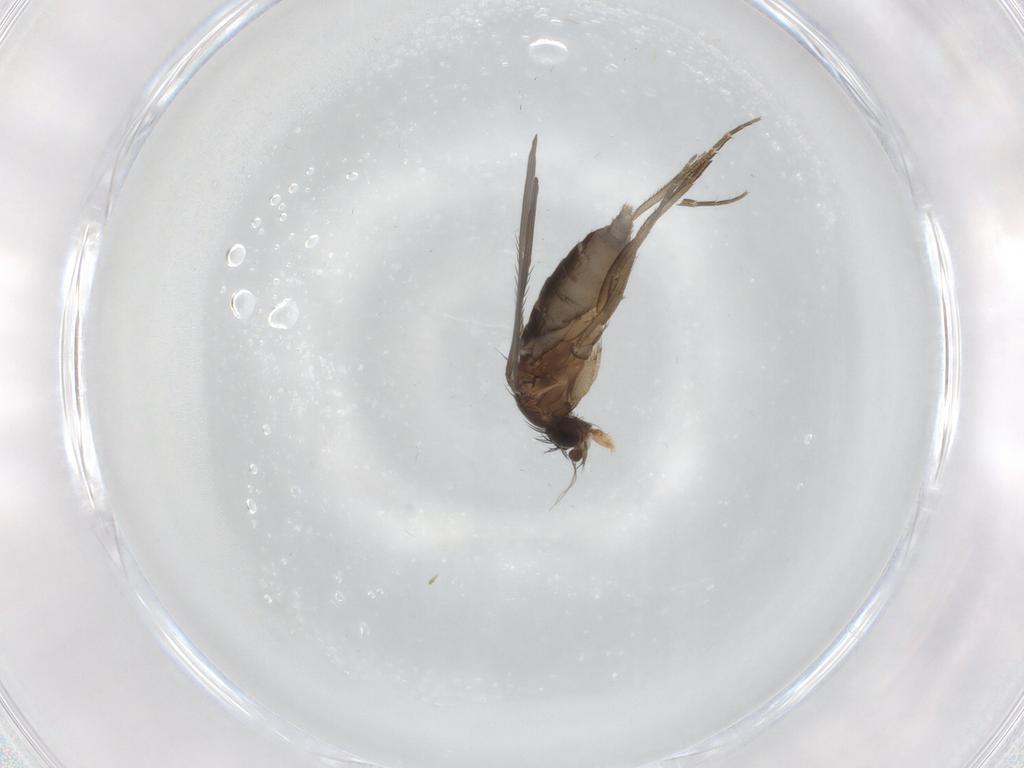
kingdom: Animalia
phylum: Arthropoda
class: Insecta
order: Diptera
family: Phoridae
